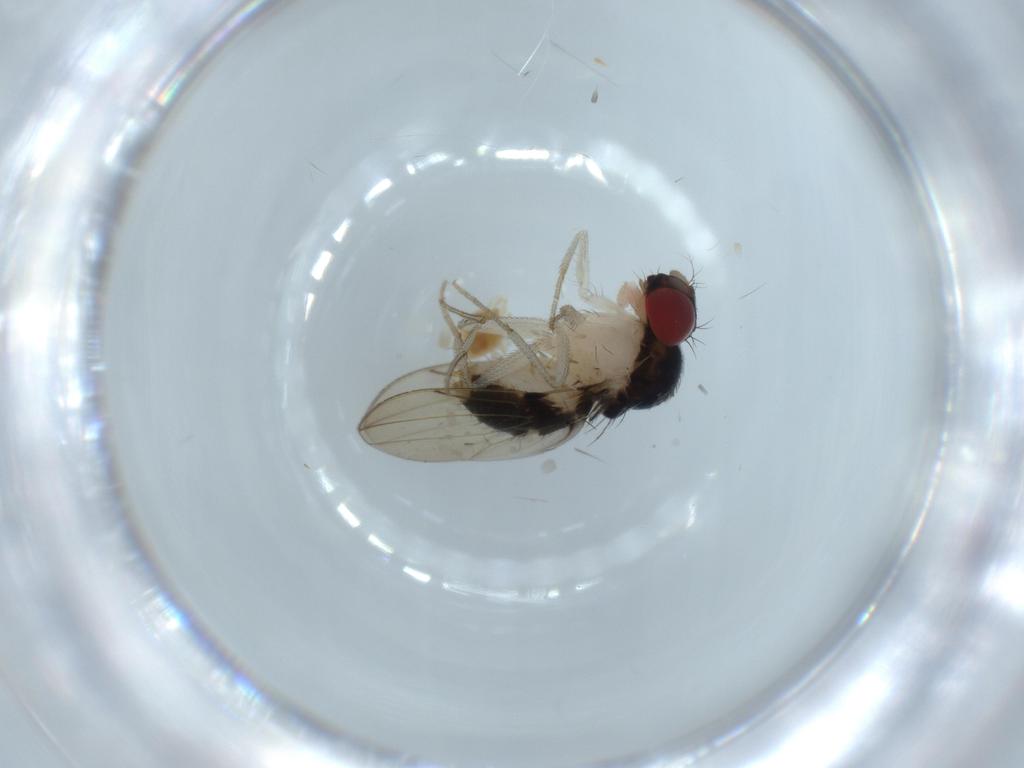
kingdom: Animalia
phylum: Arthropoda
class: Insecta
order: Diptera
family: Drosophilidae
